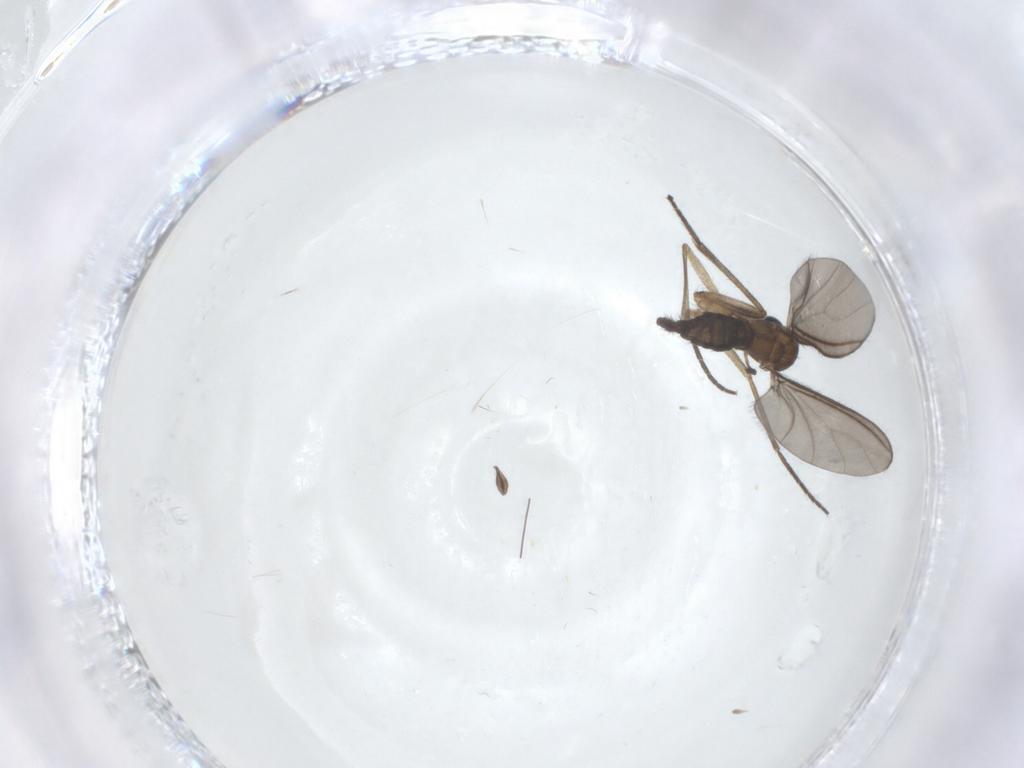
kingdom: Animalia
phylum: Arthropoda
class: Insecta
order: Diptera
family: Sciaridae
